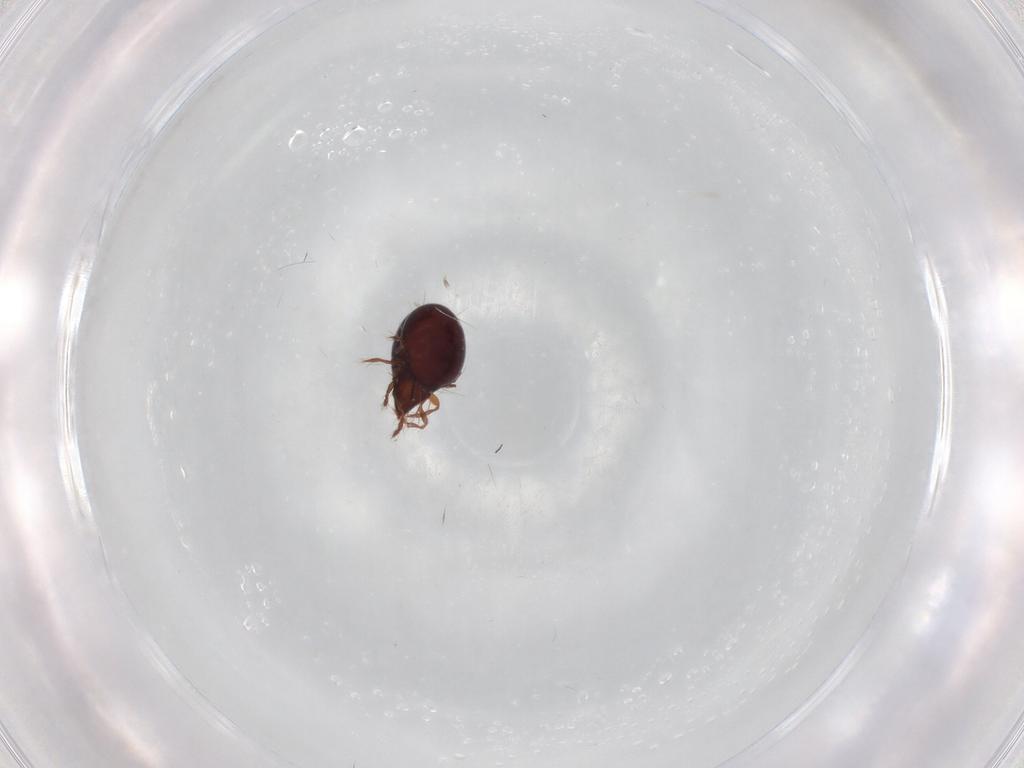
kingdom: Animalia
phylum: Arthropoda
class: Arachnida
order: Sarcoptiformes
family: Ceratoppiidae
